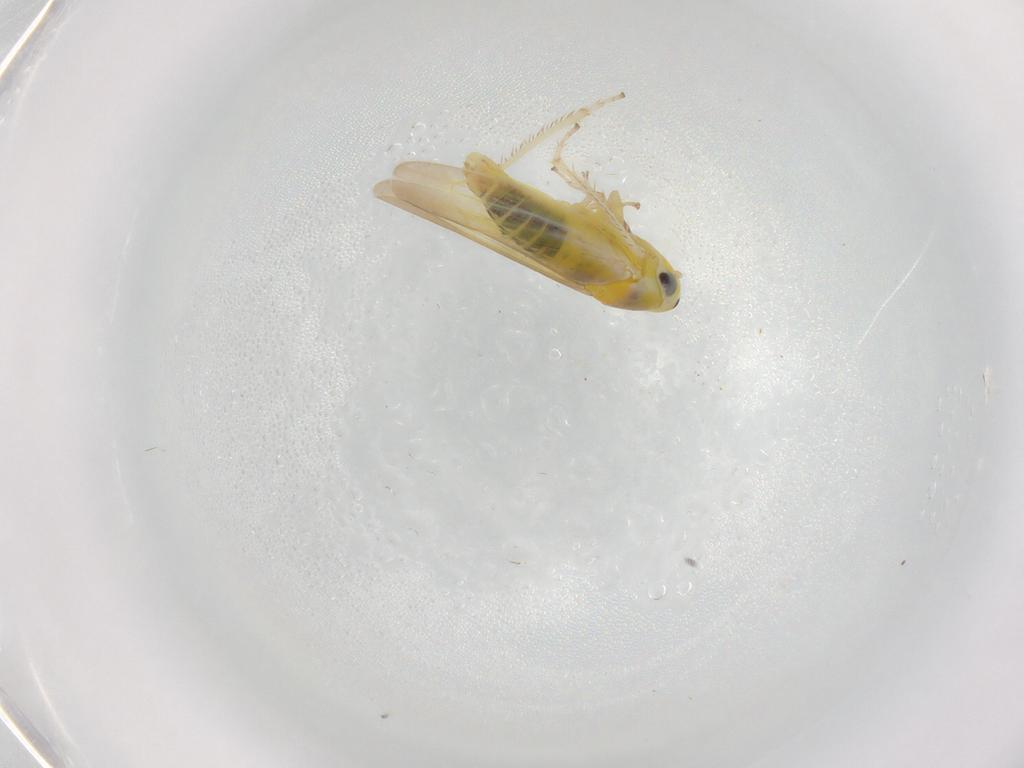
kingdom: Animalia
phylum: Arthropoda
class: Insecta
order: Hemiptera
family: Cicadellidae
